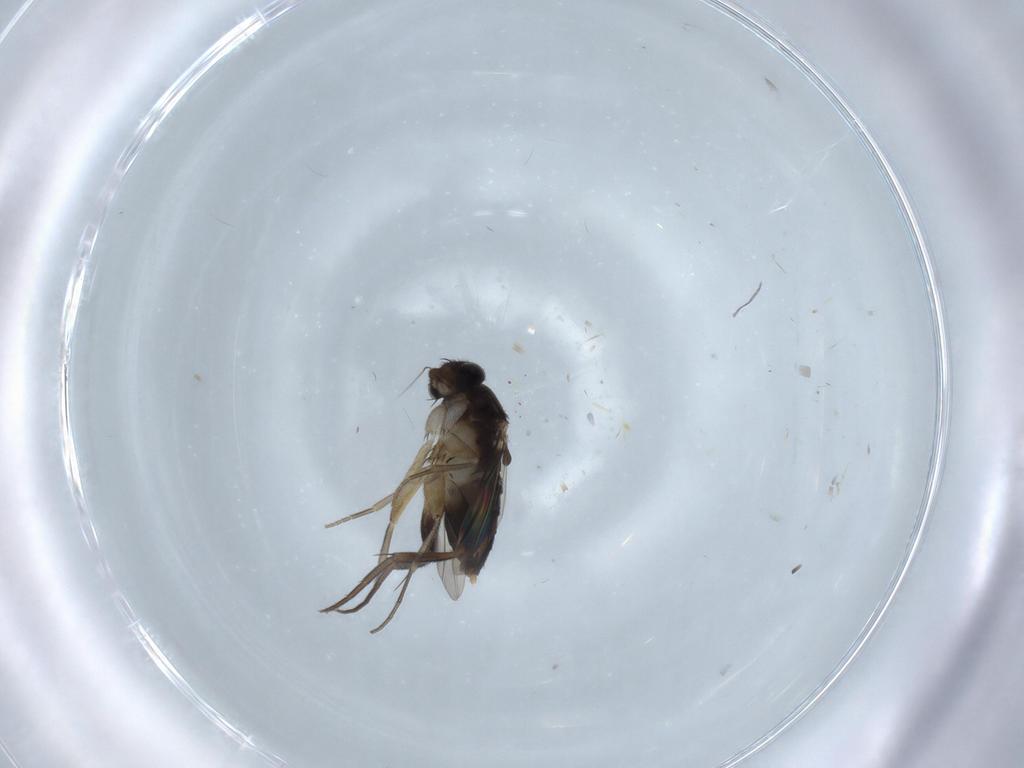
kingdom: Animalia
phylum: Arthropoda
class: Insecta
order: Diptera
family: Phoridae
